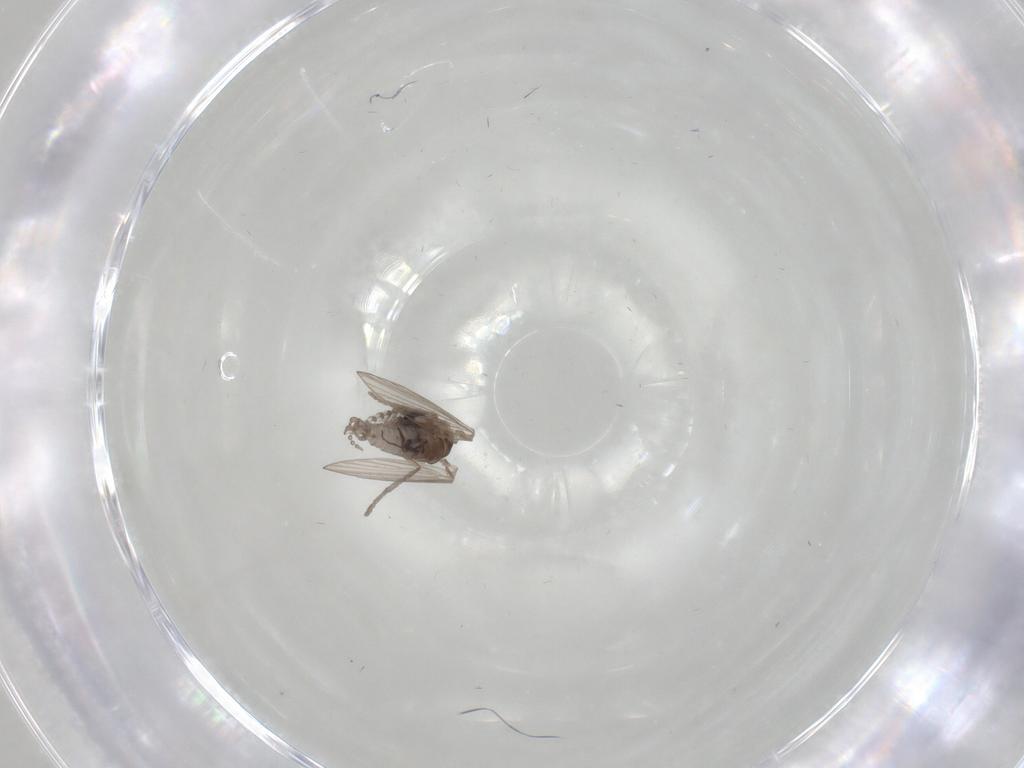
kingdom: Animalia
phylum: Arthropoda
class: Insecta
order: Diptera
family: Psychodidae
